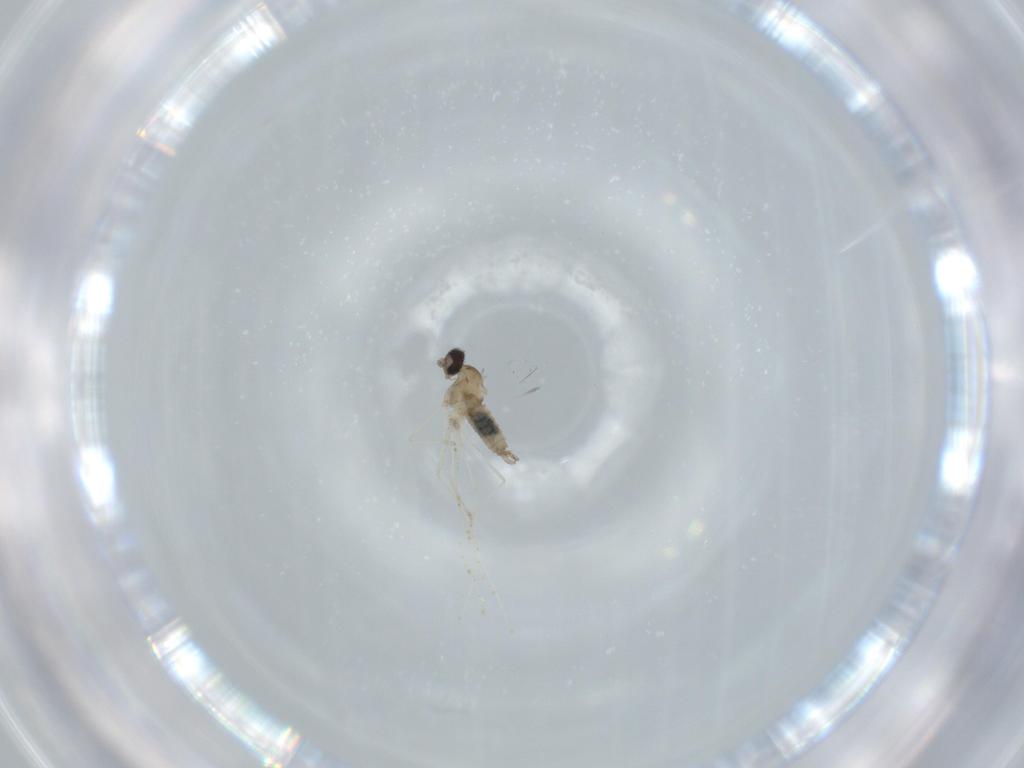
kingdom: Animalia
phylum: Arthropoda
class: Insecta
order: Diptera
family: Cecidomyiidae
